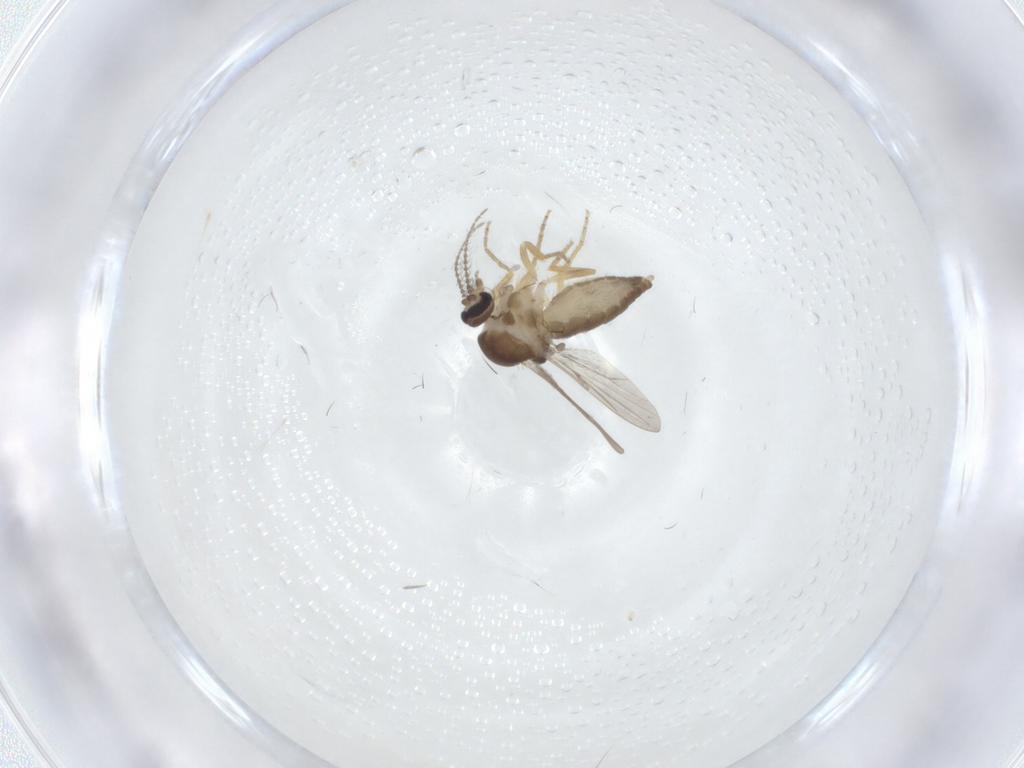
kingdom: Animalia
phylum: Arthropoda
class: Insecta
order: Diptera
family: Ceratopogonidae
